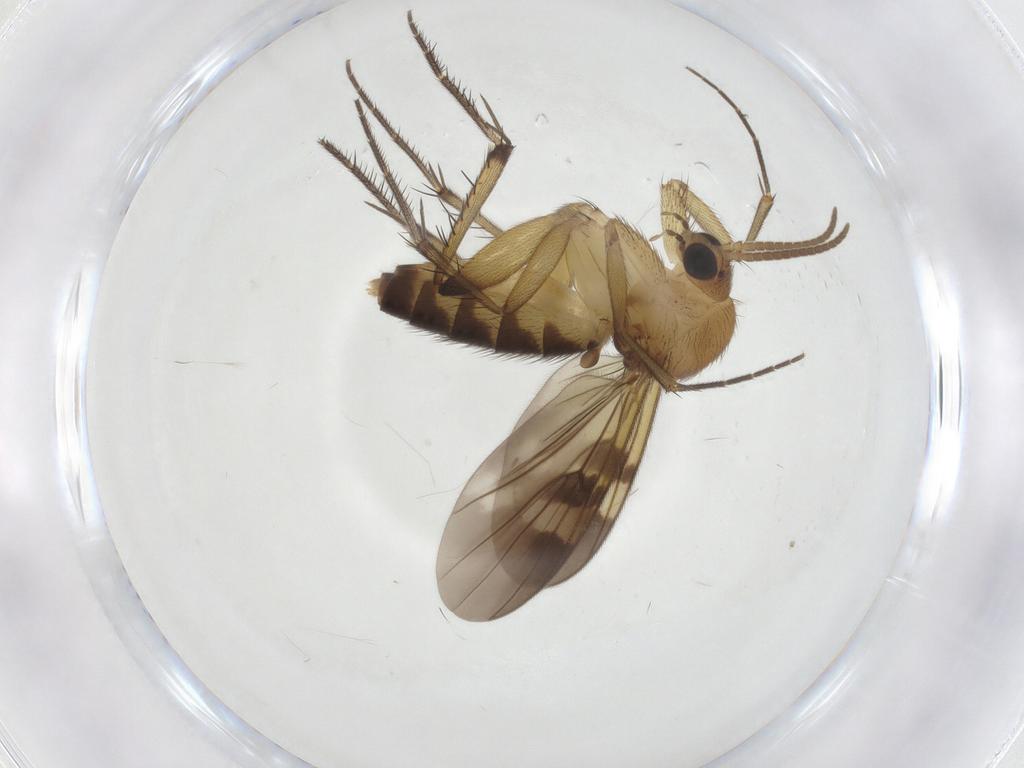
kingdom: Animalia
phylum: Arthropoda
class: Insecta
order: Diptera
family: Mycetophilidae
